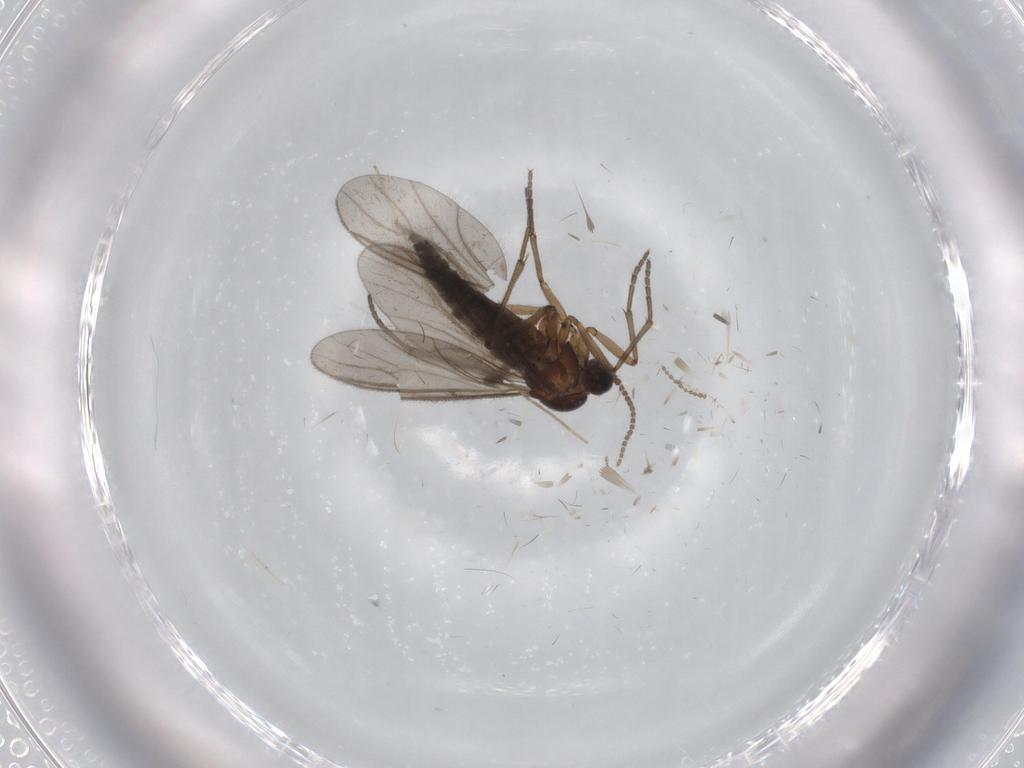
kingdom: Animalia
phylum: Arthropoda
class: Insecta
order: Diptera
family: Sciaridae
